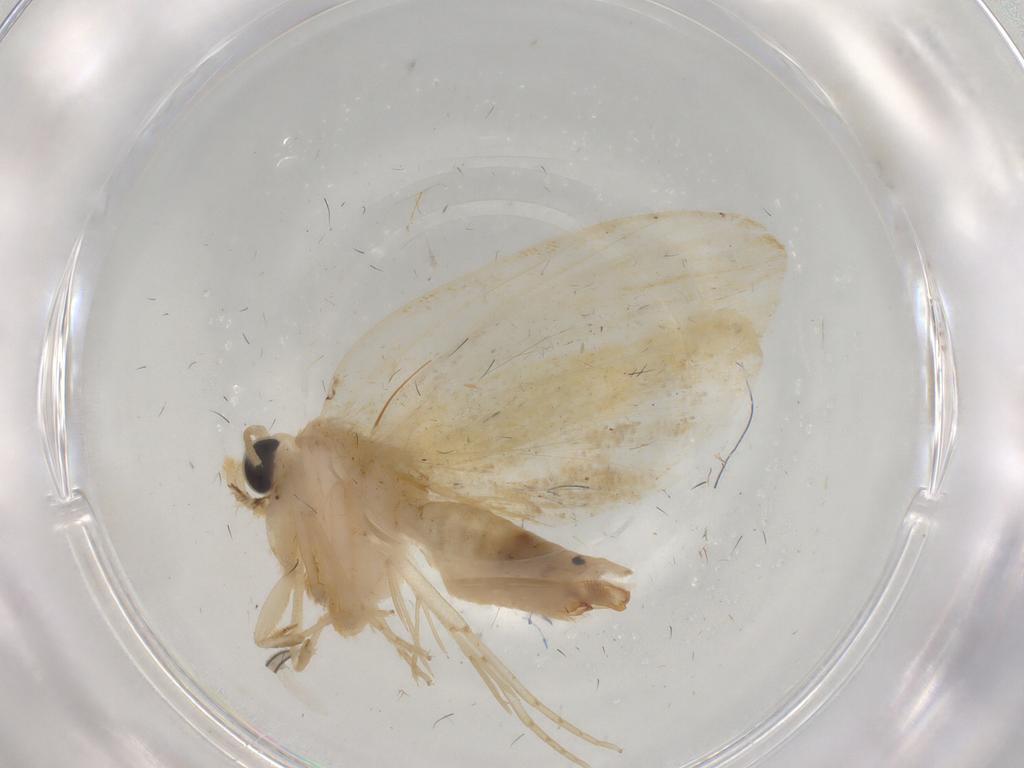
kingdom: Animalia
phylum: Arthropoda
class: Insecta
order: Lepidoptera
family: Psychidae
